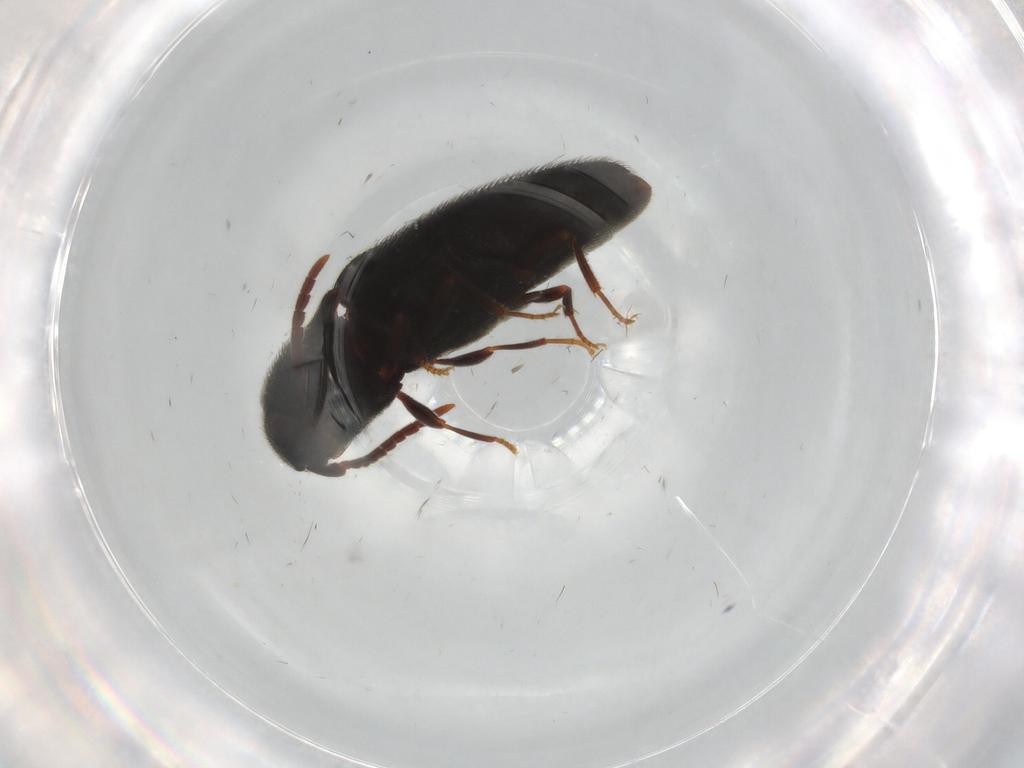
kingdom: Animalia
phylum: Arthropoda
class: Insecta
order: Coleoptera
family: Eucnemidae
